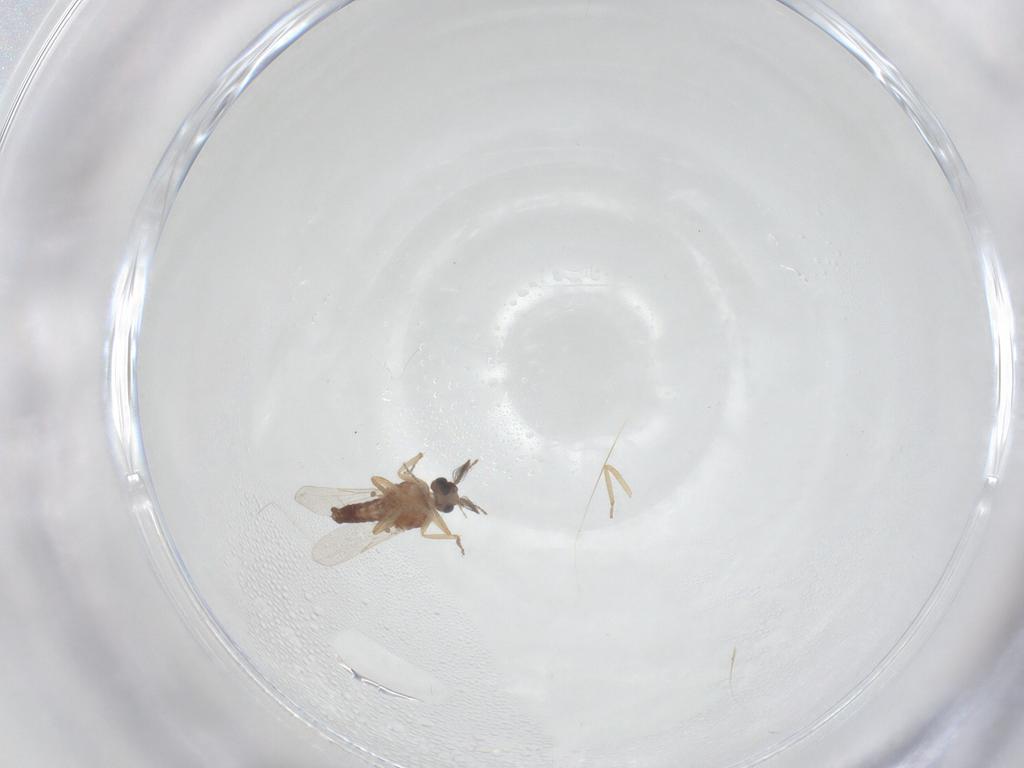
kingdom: Animalia
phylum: Arthropoda
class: Insecta
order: Diptera
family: Ceratopogonidae
